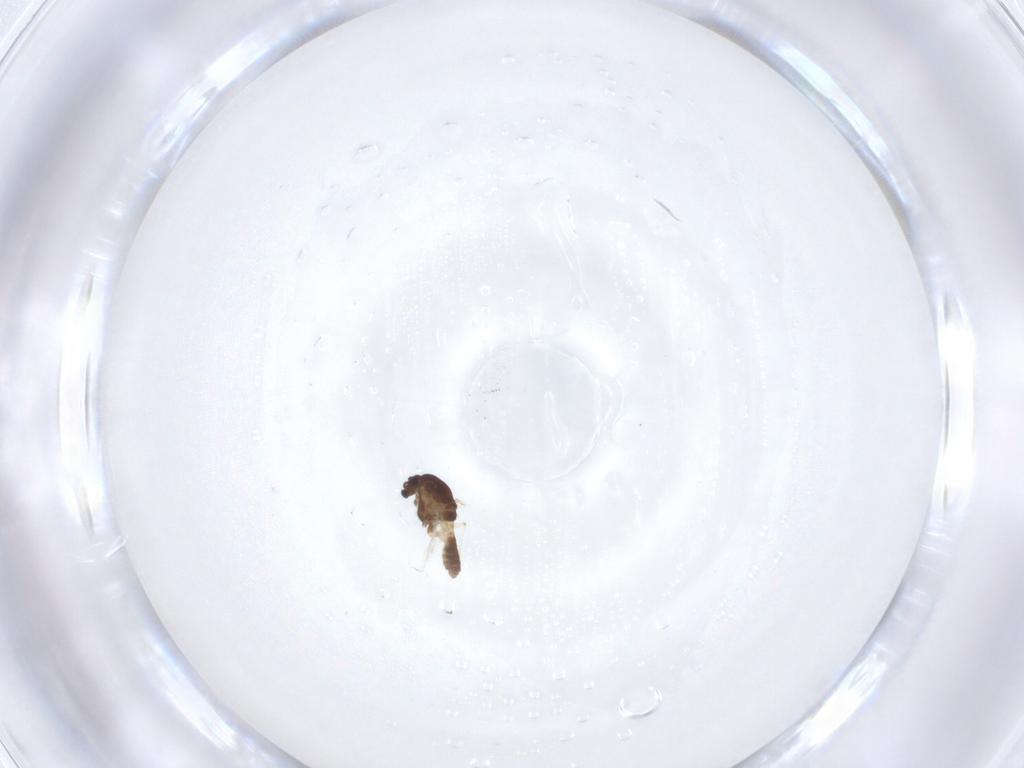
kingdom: Animalia
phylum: Arthropoda
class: Insecta
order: Diptera
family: Chironomidae
